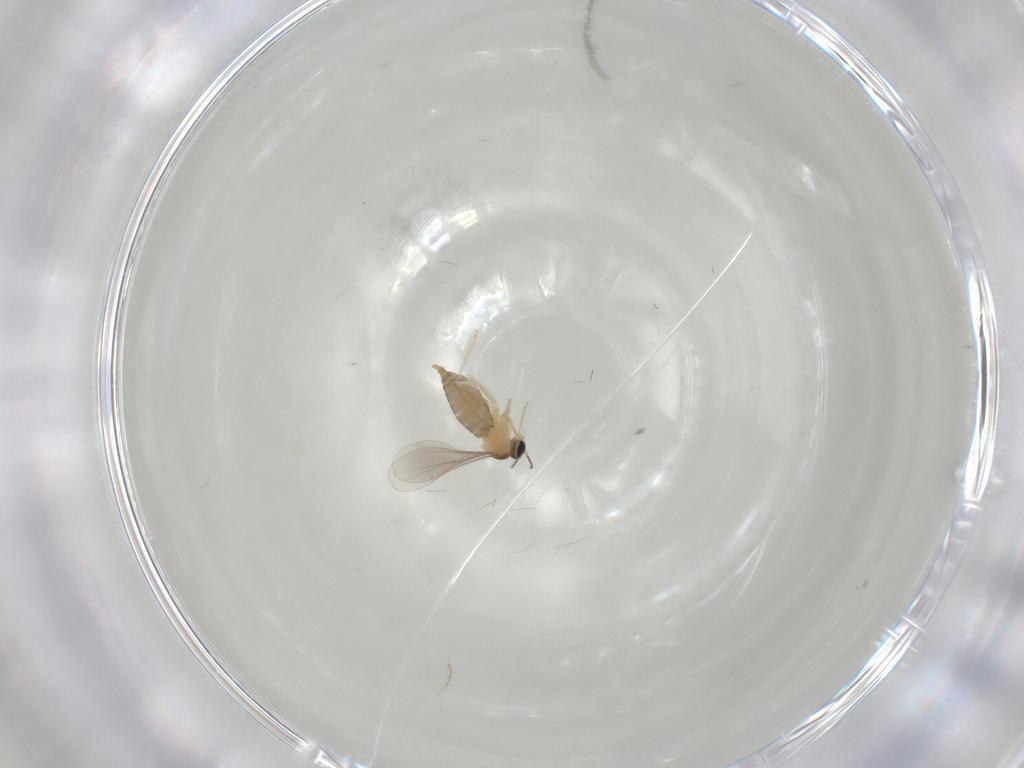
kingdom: Animalia
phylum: Arthropoda
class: Insecta
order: Diptera
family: Cecidomyiidae
